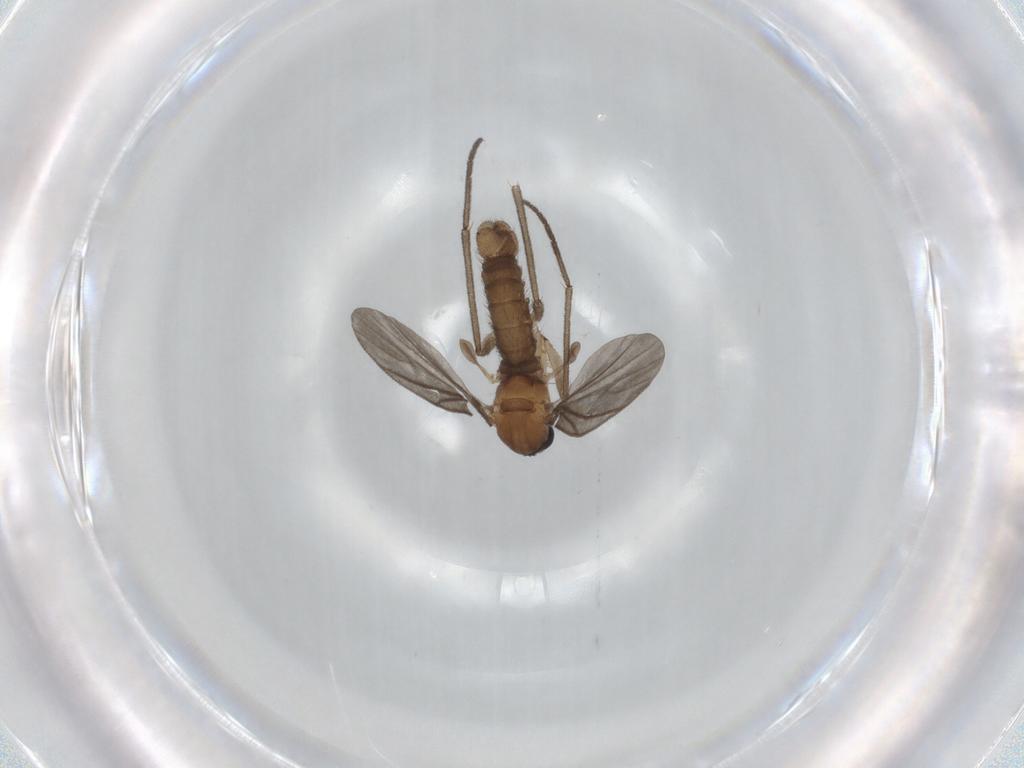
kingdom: Animalia
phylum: Arthropoda
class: Insecta
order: Diptera
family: Sciaridae
